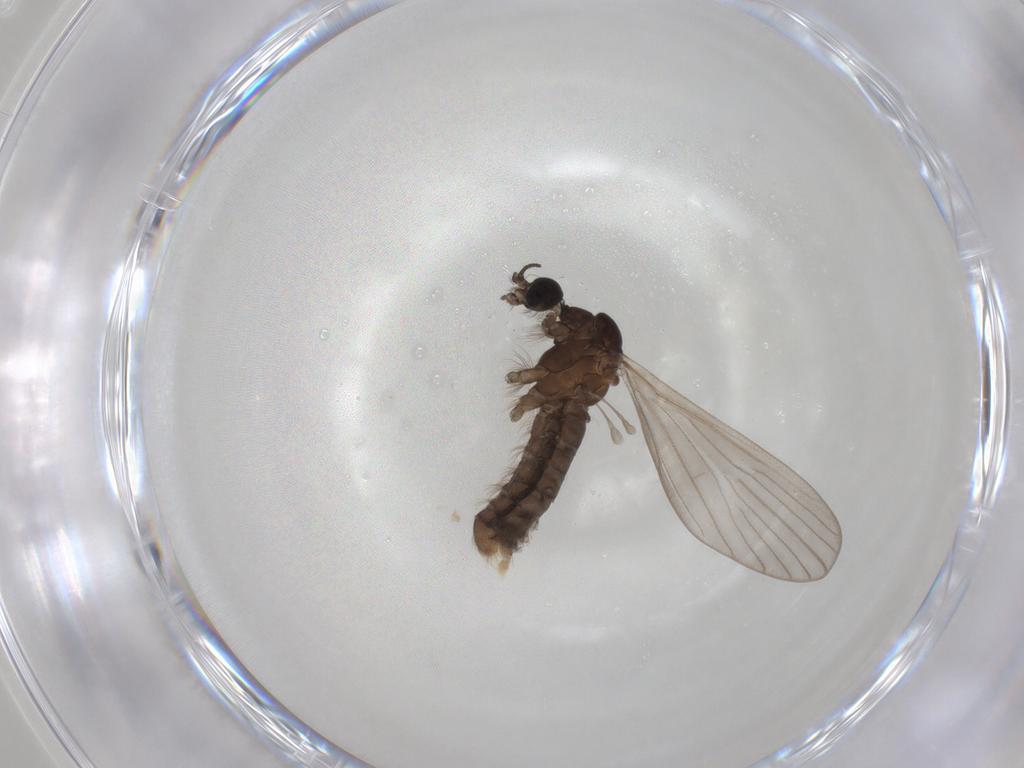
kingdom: Animalia
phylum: Arthropoda
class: Insecta
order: Diptera
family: Limoniidae
